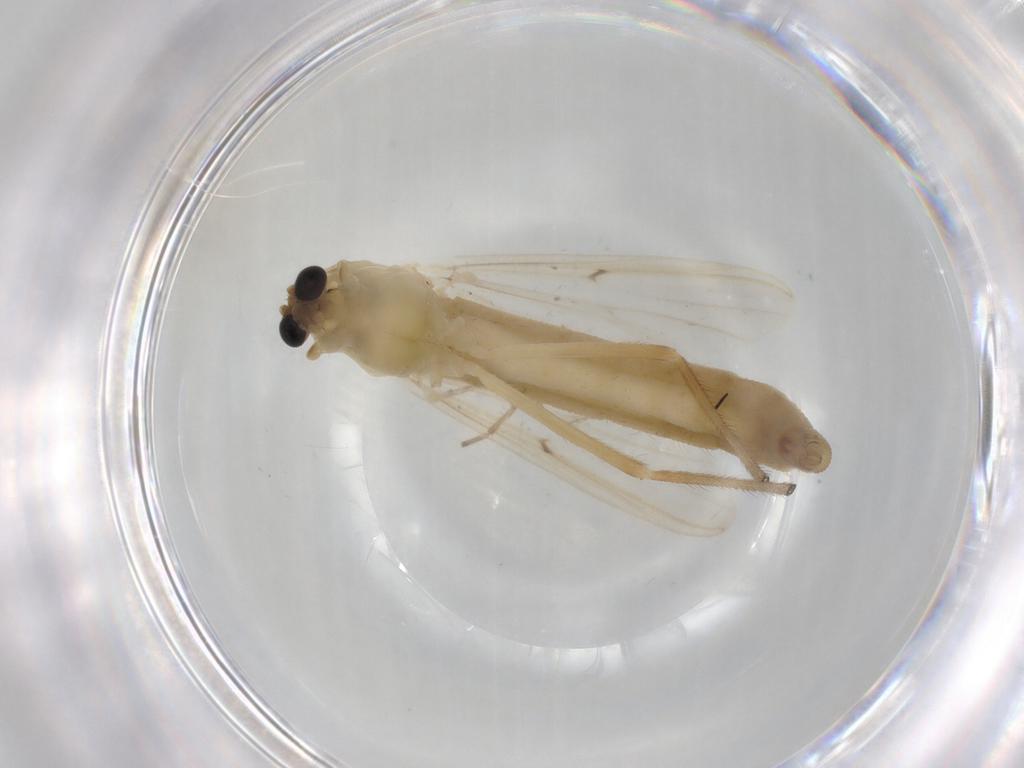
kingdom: Animalia
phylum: Arthropoda
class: Insecta
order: Diptera
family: Chironomidae
